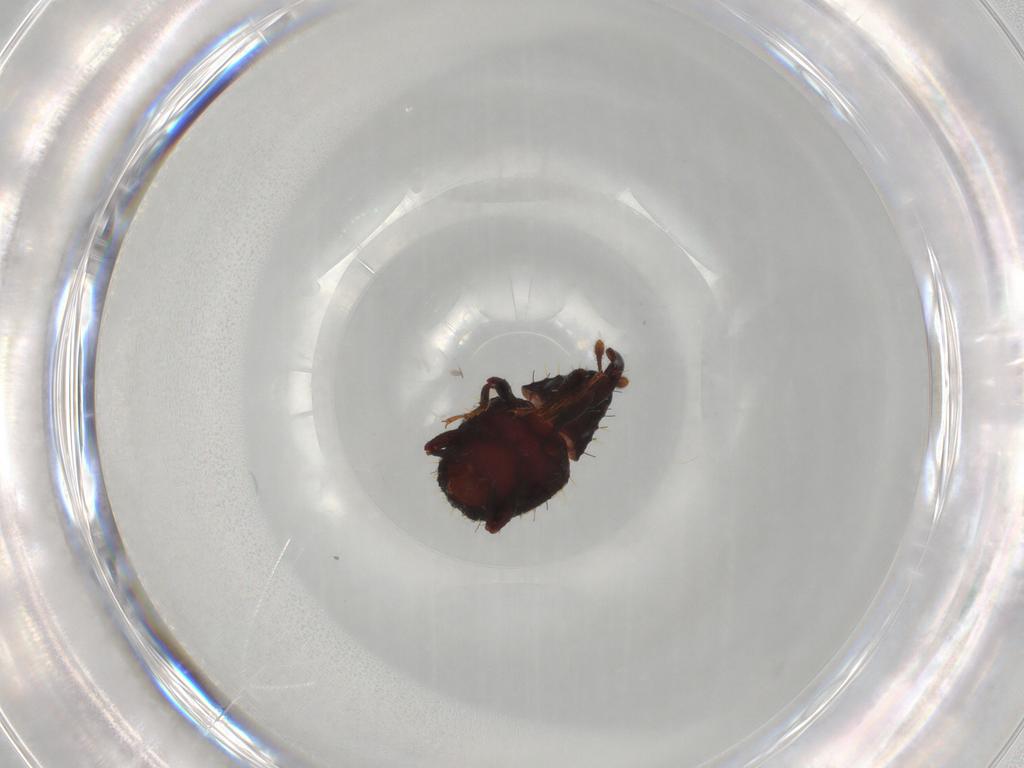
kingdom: Animalia
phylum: Arthropoda
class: Insecta
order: Coleoptera
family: Curculionidae
